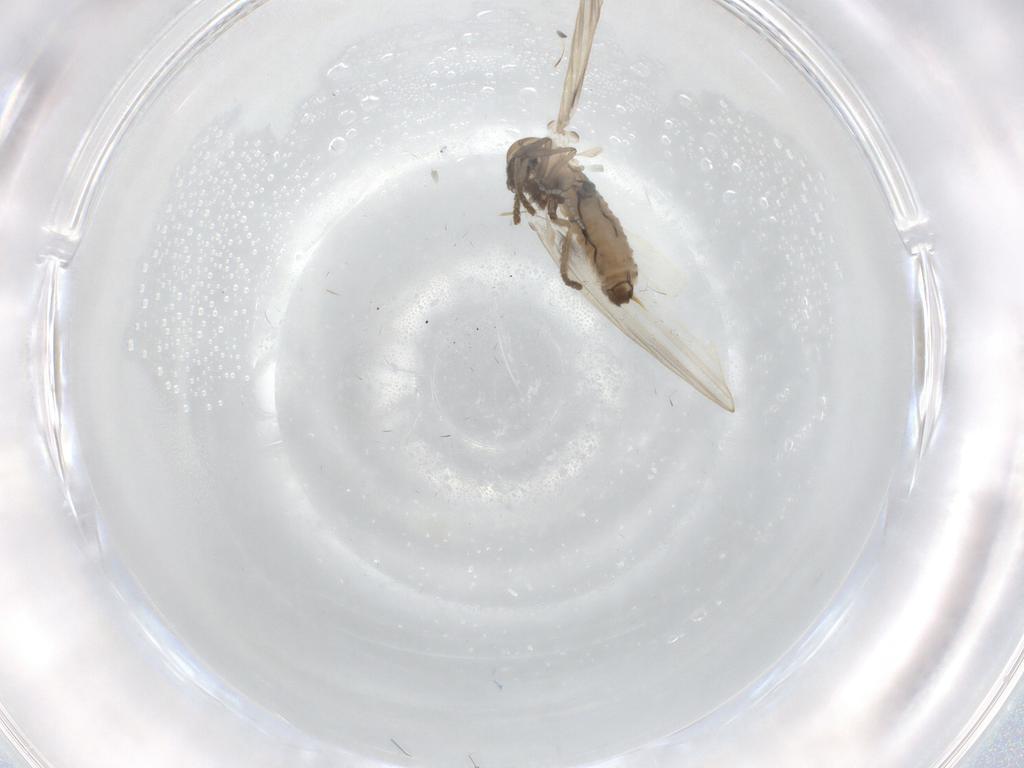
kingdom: Animalia
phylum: Arthropoda
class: Insecta
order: Diptera
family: Psychodidae
